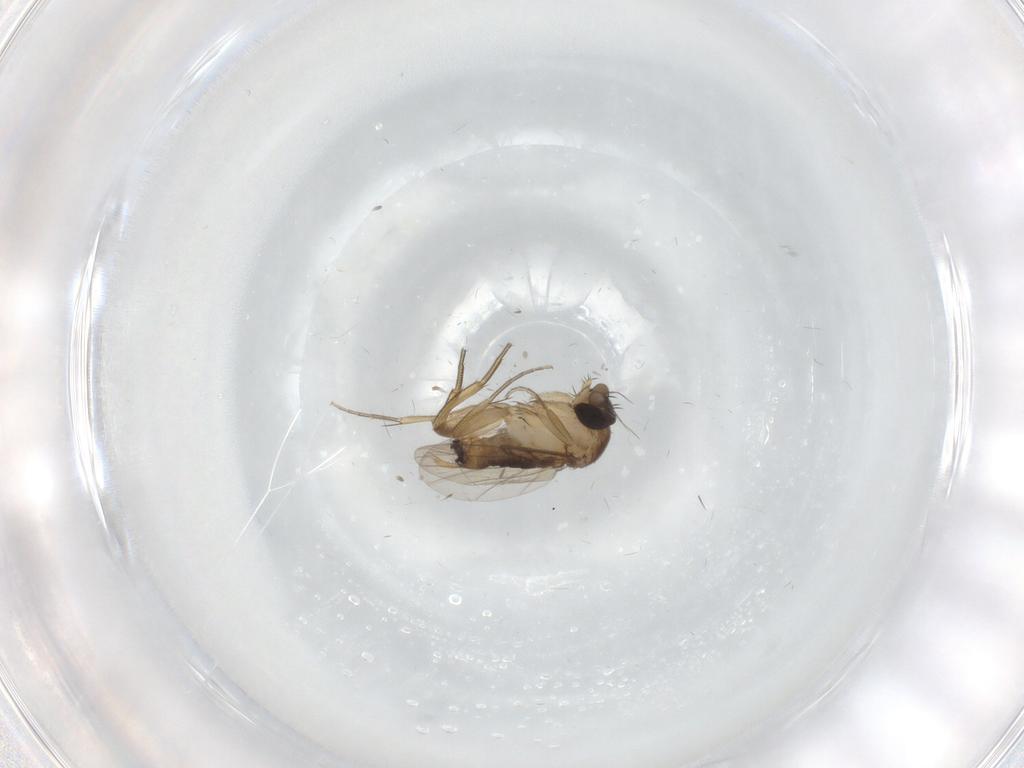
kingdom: Animalia
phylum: Arthropoda
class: Insecta
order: Diptera
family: Phoridae
